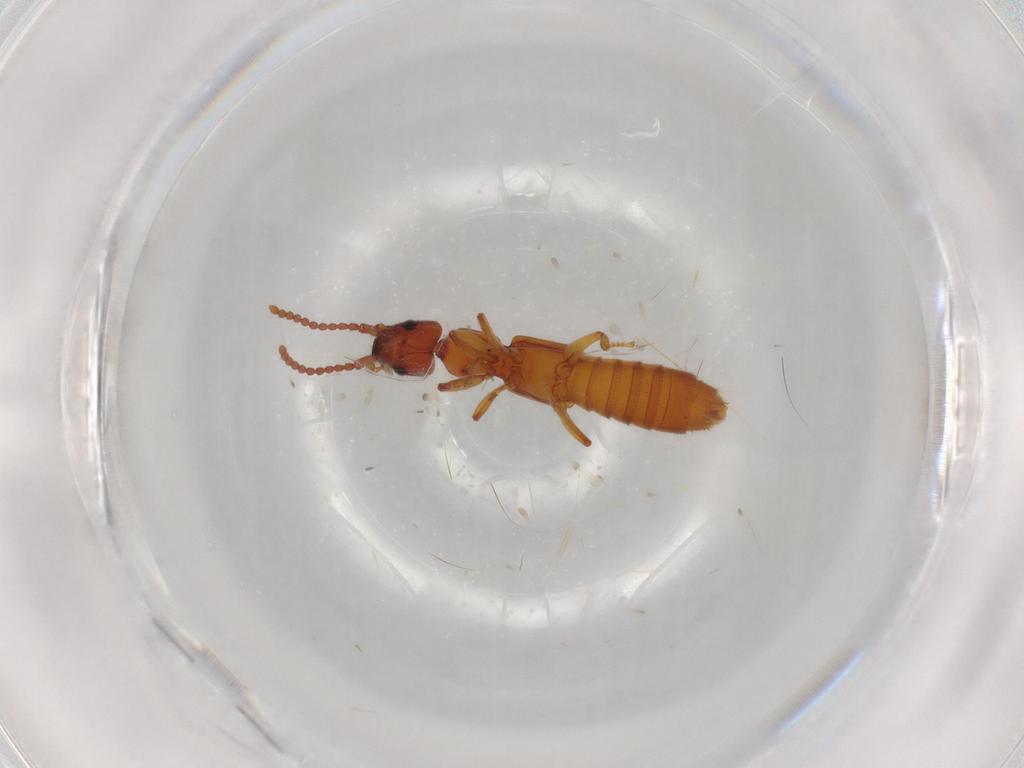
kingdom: Animalia
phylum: Arthropoda
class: Insecta
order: Coleoptera
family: Staphylinidae
